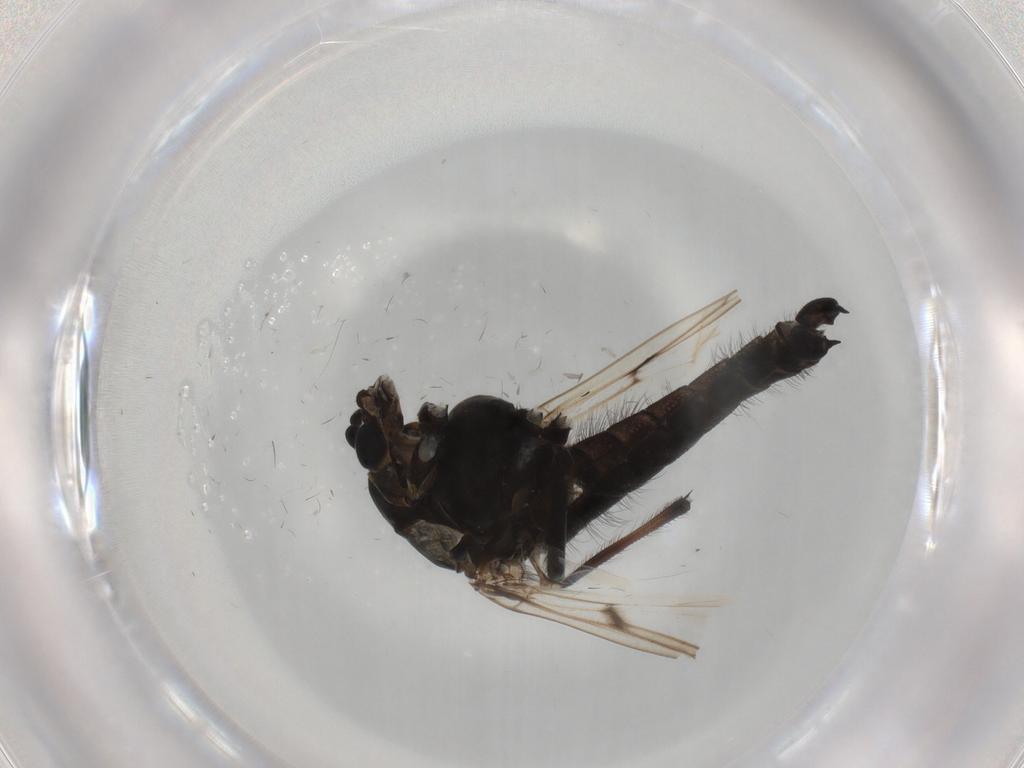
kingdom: Animalia
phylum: Arthropoda
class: Insecta
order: Diptera
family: Chironomidae
